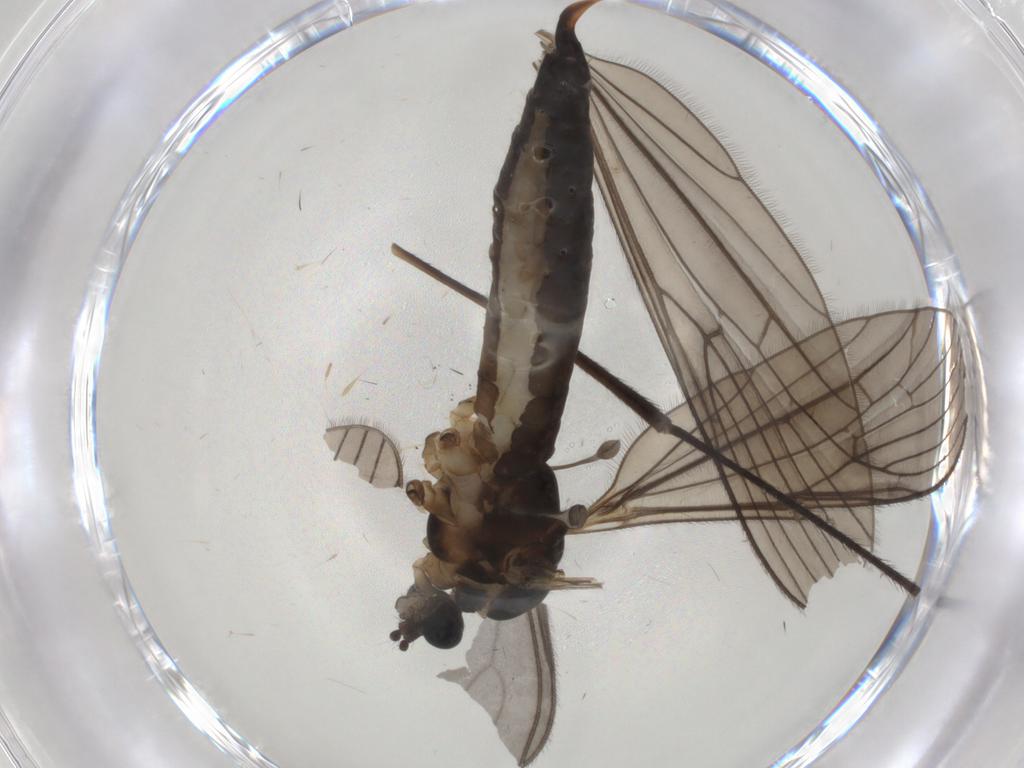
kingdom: Animalia
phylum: Arthropoda
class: Insecta
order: Diptera
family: Limoniidae
